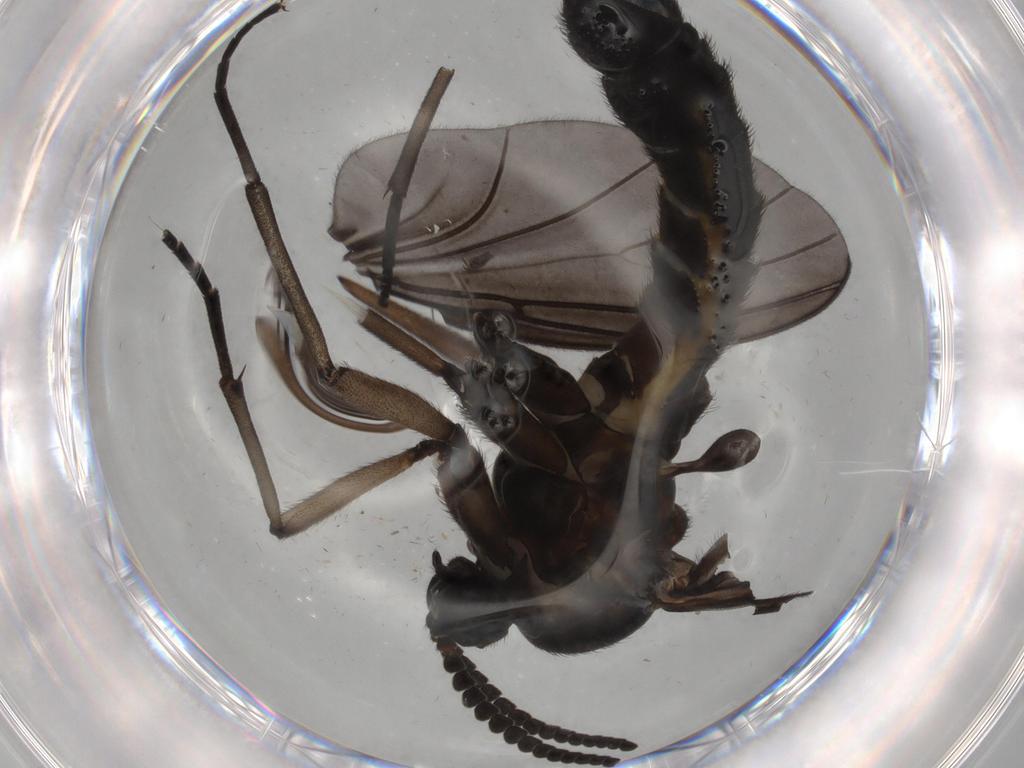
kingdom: Animalia
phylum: Arthropoda
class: Insecta
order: Diptera
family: Sciaridae
